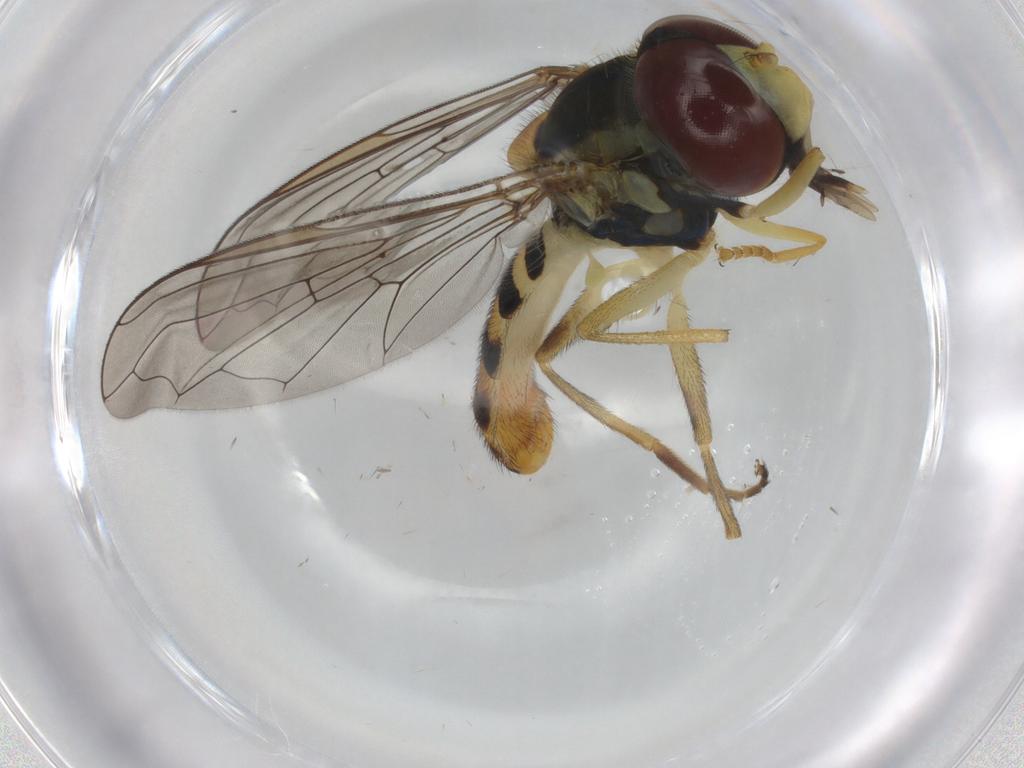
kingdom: Animalia
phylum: Arthropoda
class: Insecta
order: Diptera
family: Syrphidae
